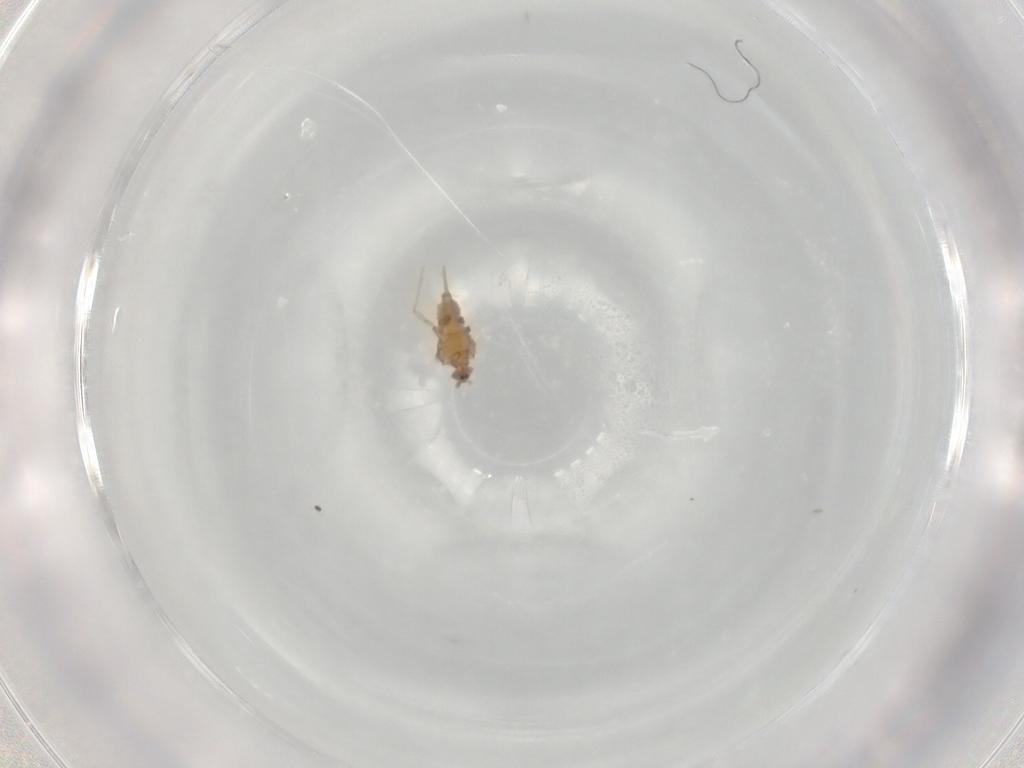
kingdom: Animalia
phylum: Arthropoda
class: Insecta
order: Hemiptera
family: Coccidae
